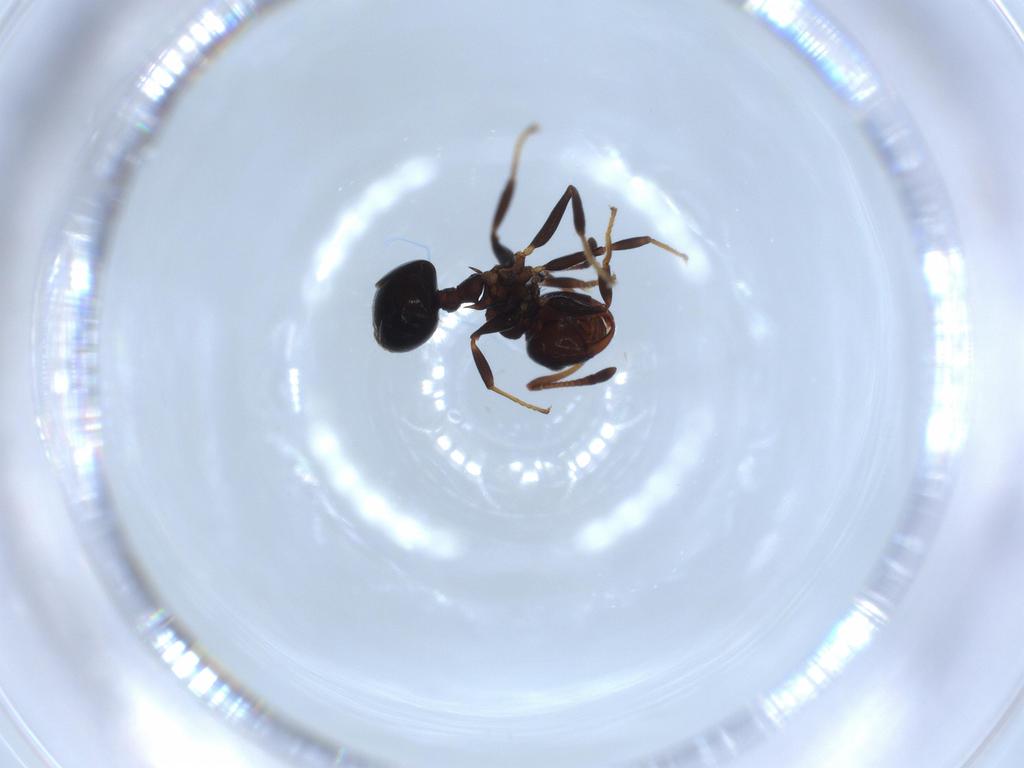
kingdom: Animalia
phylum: Arthropoda
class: Insecta
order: Hymenoptera
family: Formicidae
